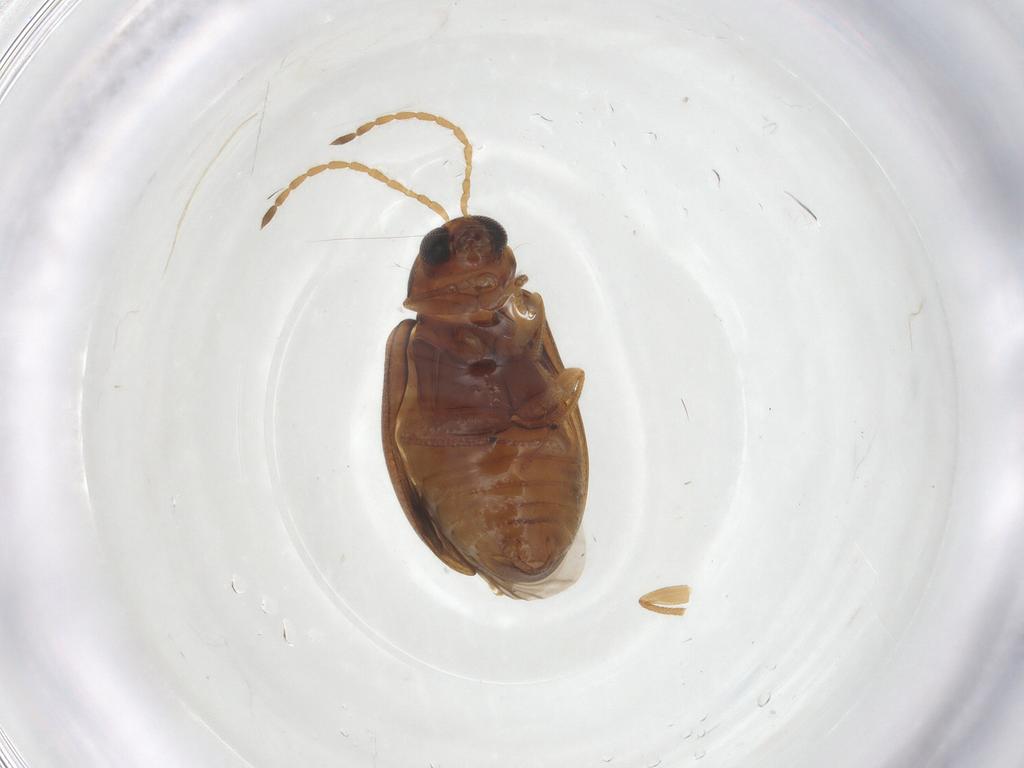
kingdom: Animalia
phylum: Arthropoda
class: Insecta
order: Coleoptera
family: Chrysomelidae
